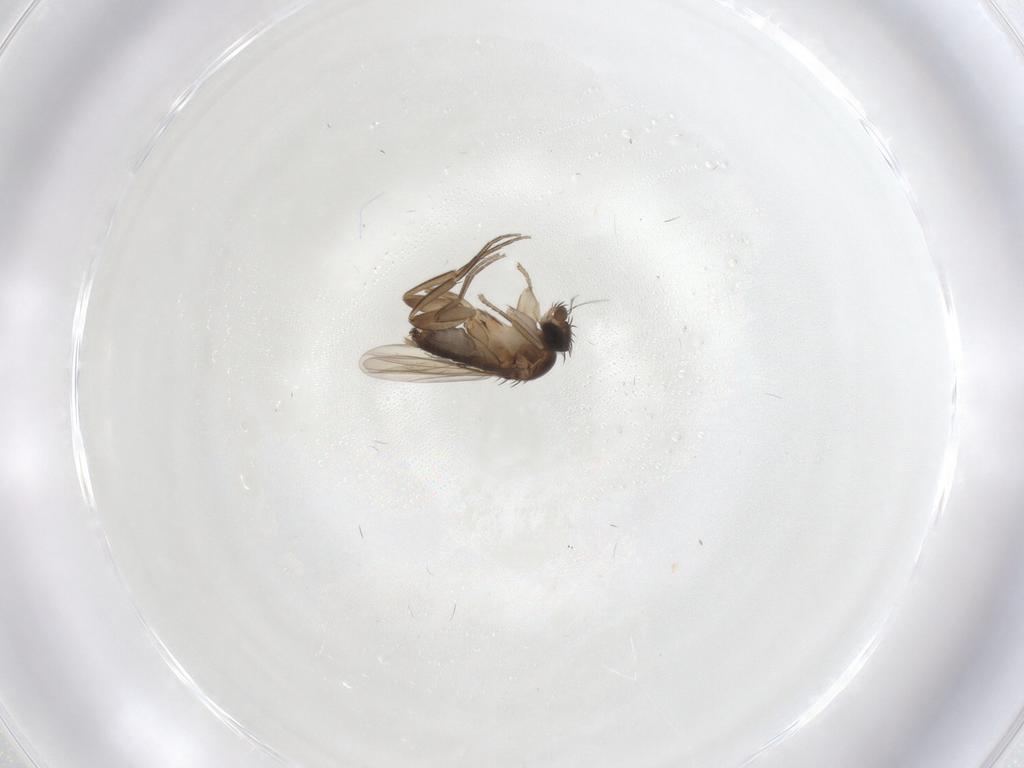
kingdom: Animalia
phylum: Arthropoda
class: Insecta
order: Diptera
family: Phoridae
